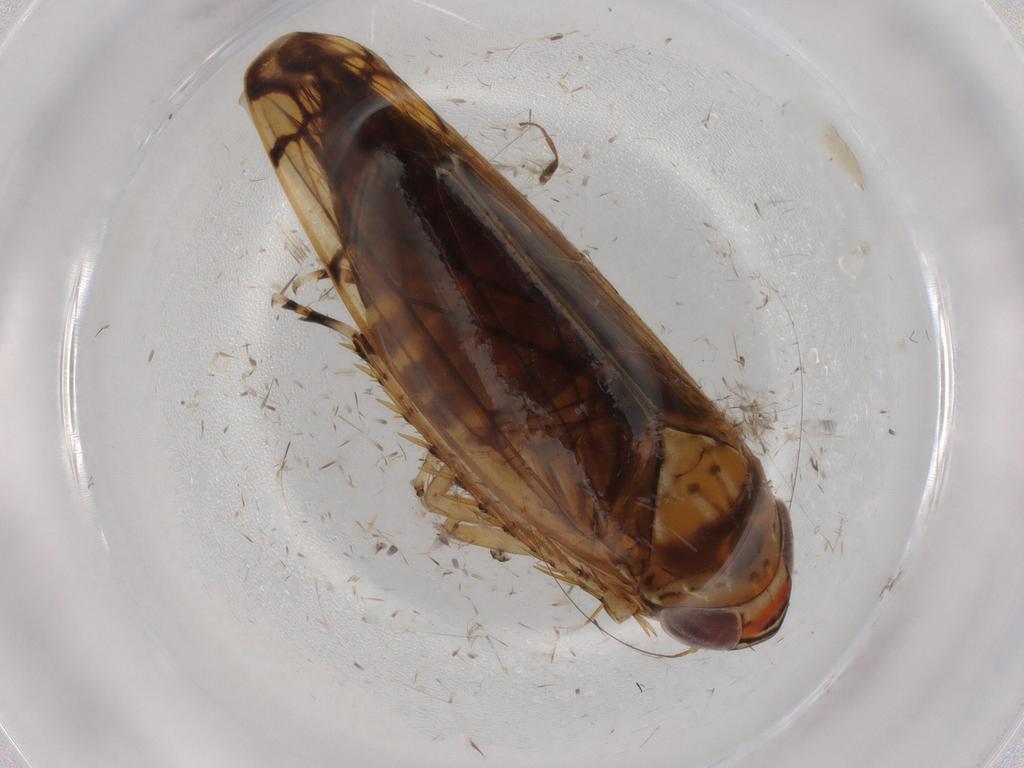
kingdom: Animalia
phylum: Arthropoda
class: Insecta
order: Hemiptera
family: Cicadellidae
